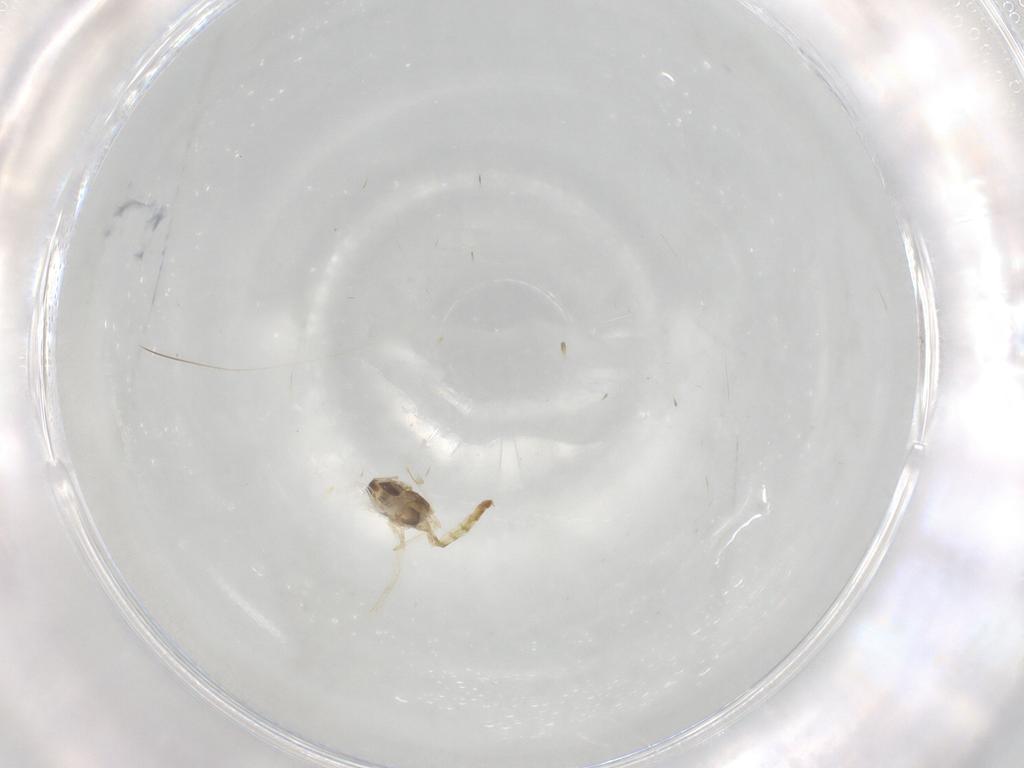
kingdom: Animalia
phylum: Arthropoda
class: Insecta
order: Diptera
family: Chironomidae
